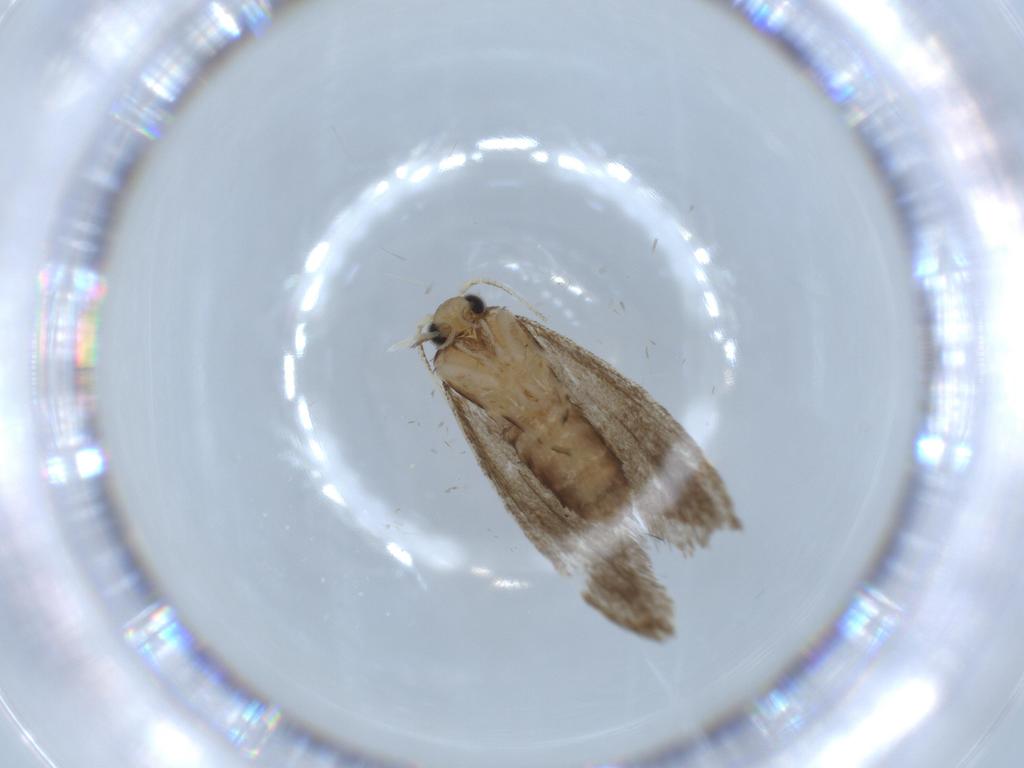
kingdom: Animalia
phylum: Arthropoda
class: Insecta
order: Lepidoptera
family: Tineidae
